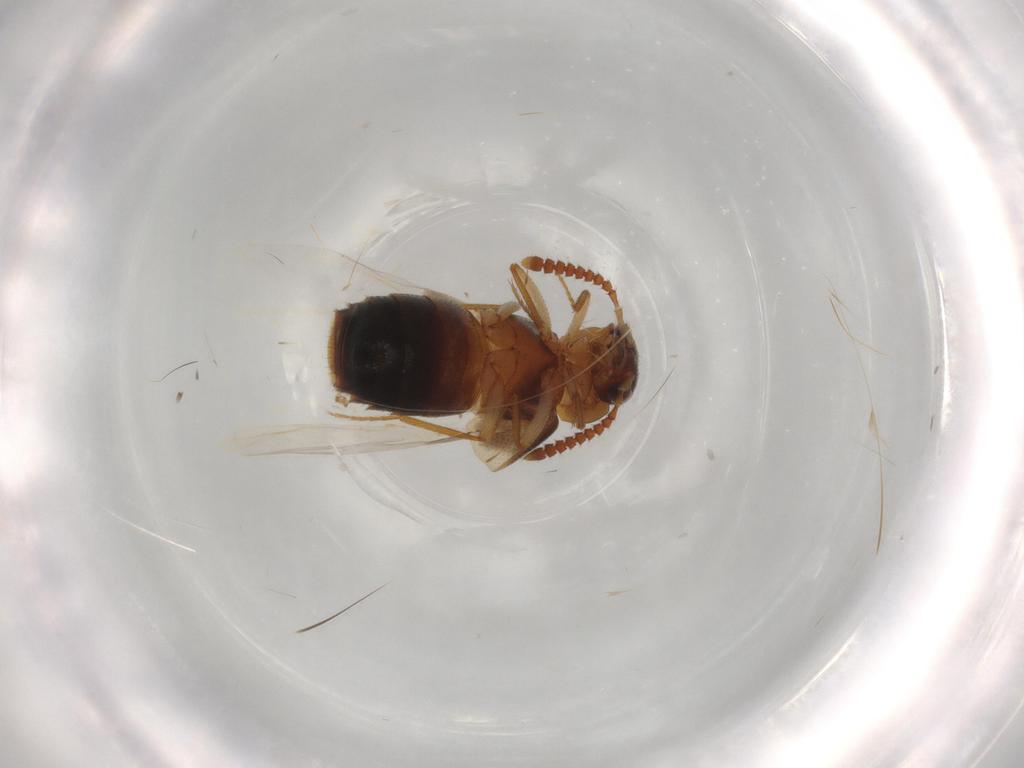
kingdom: Animalia
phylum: Arthropoda
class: Insecta
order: Coleoptera
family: Staphylinidae
